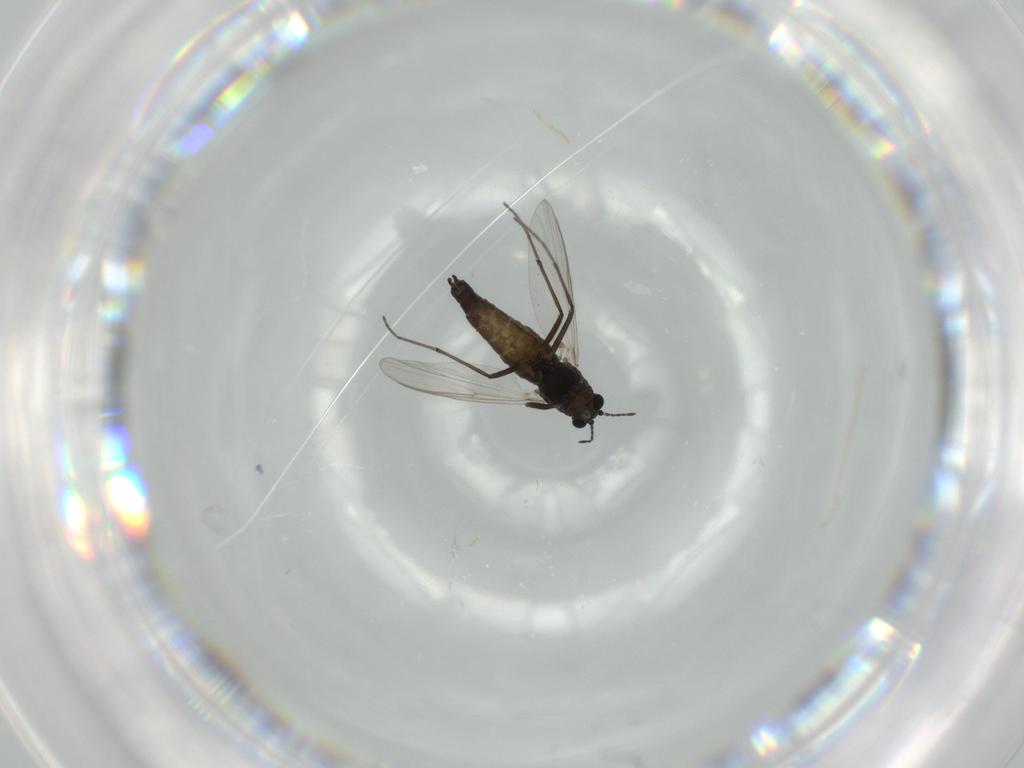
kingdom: Animalia
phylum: Arthropoda
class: Insecta
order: Diptera
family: Chironomidae
